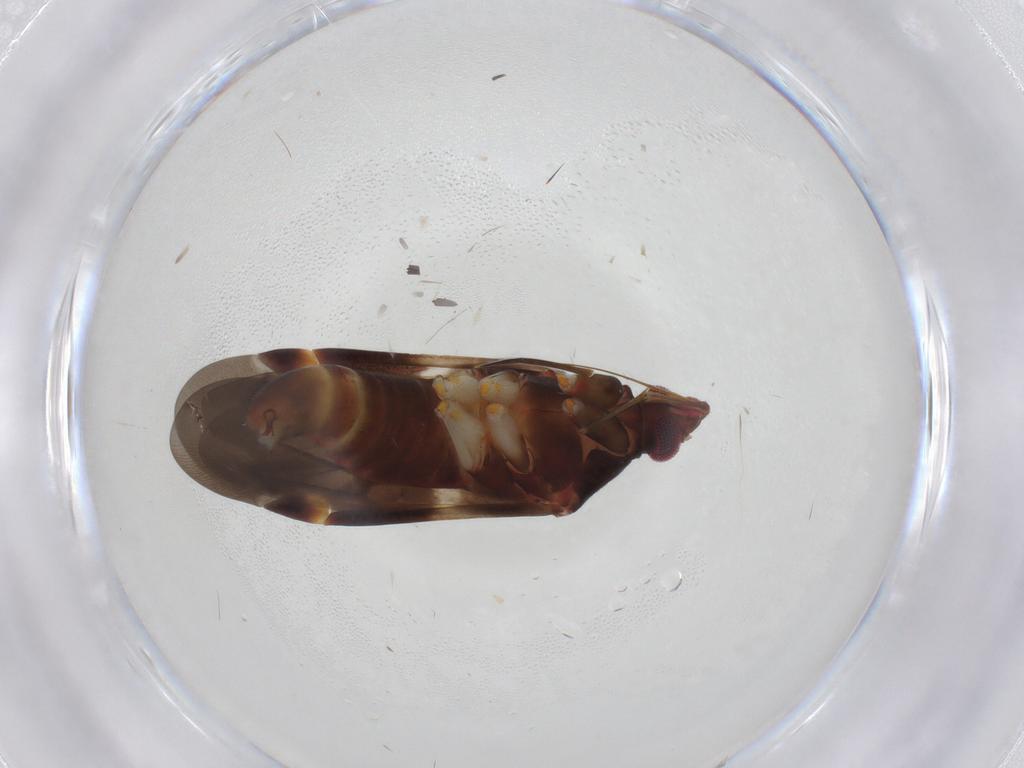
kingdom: Animalia
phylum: Arthropoda
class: Insecta
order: Hemiptera
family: Miridae
